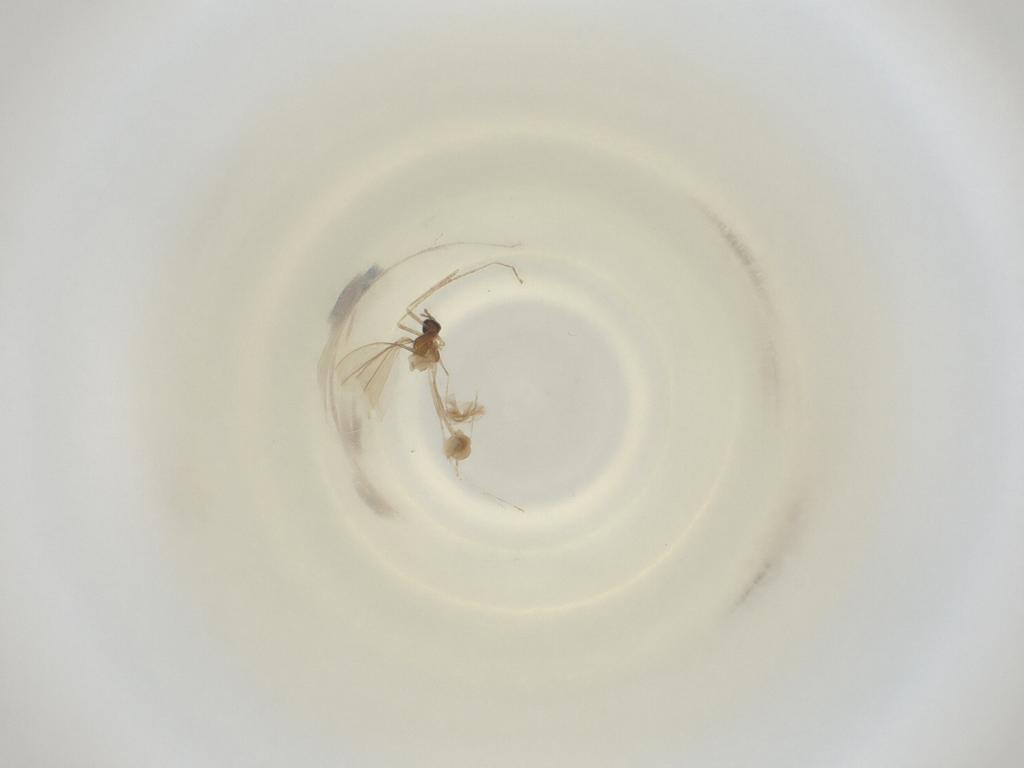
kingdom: Animalia
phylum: Arthropoda
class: Insecta
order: Diptera
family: Cecidomyiidae
